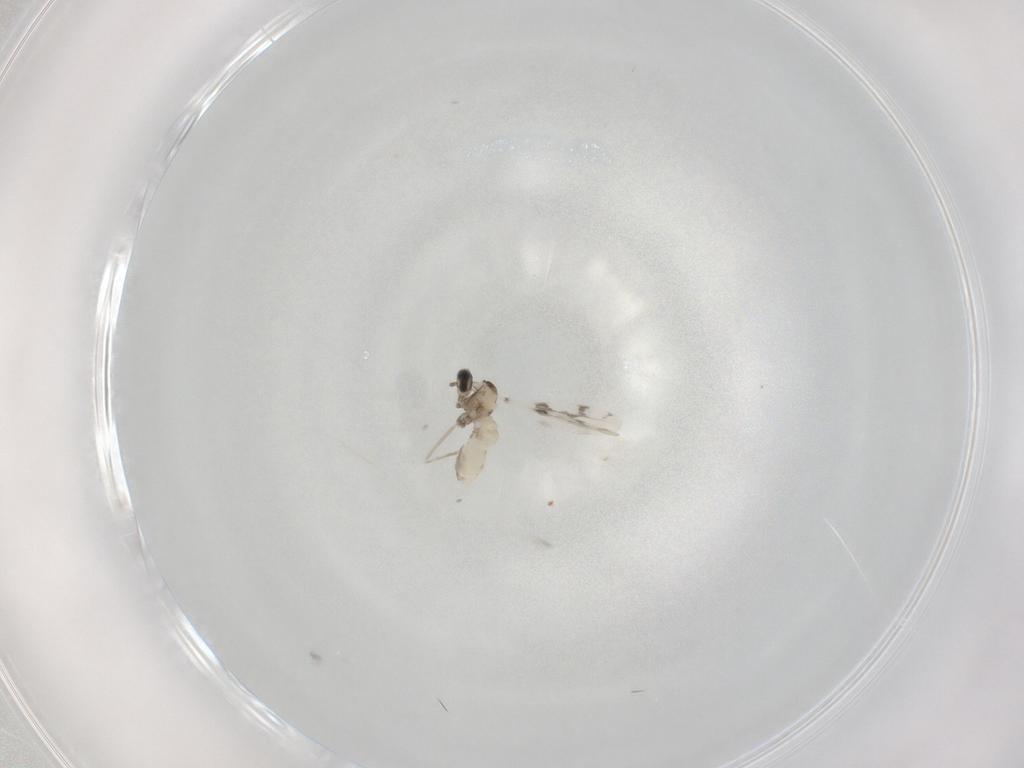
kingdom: Animalia
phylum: Arthropoda
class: Insecta
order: Diptera
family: Cecidomyiidae
